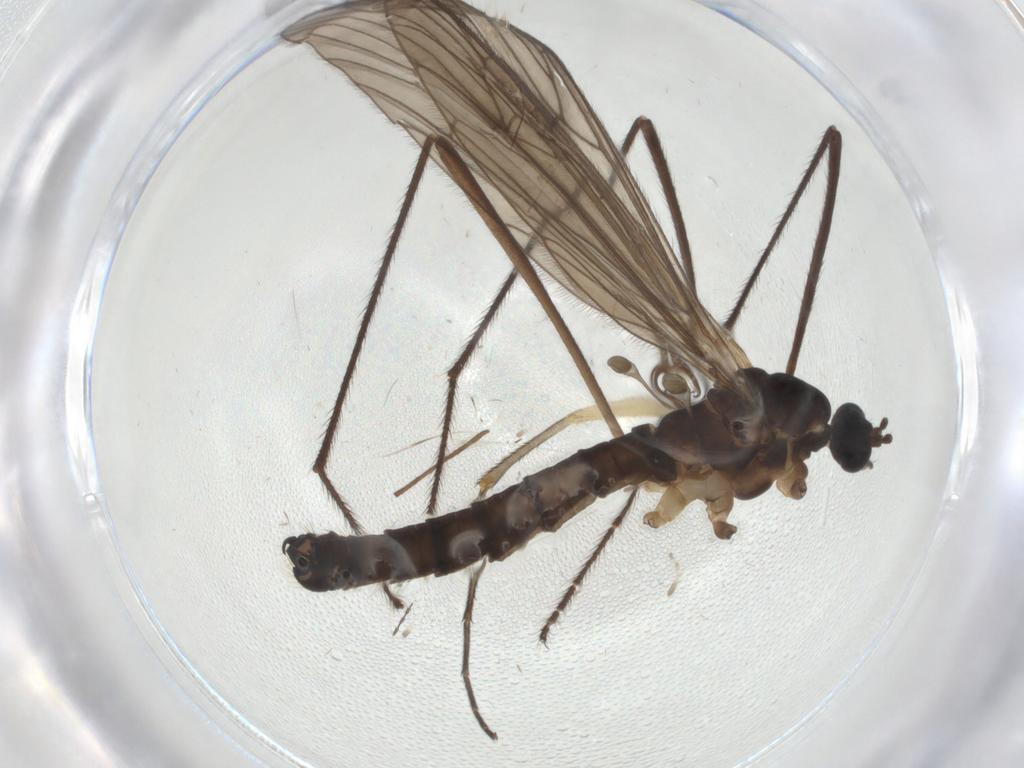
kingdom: Animalia
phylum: Arthropoda
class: Insecta
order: Diptera
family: Limoniidae
